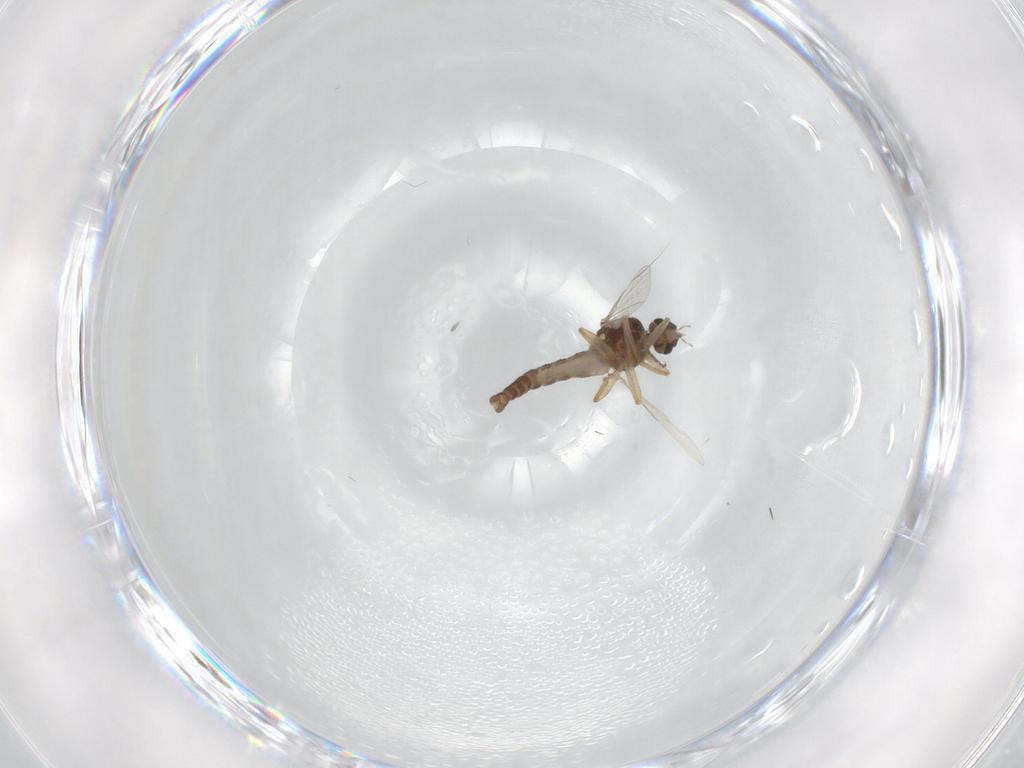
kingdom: Animalia
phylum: Arthropoda
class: Insecta
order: Diptera
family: Ceratopogonidae
